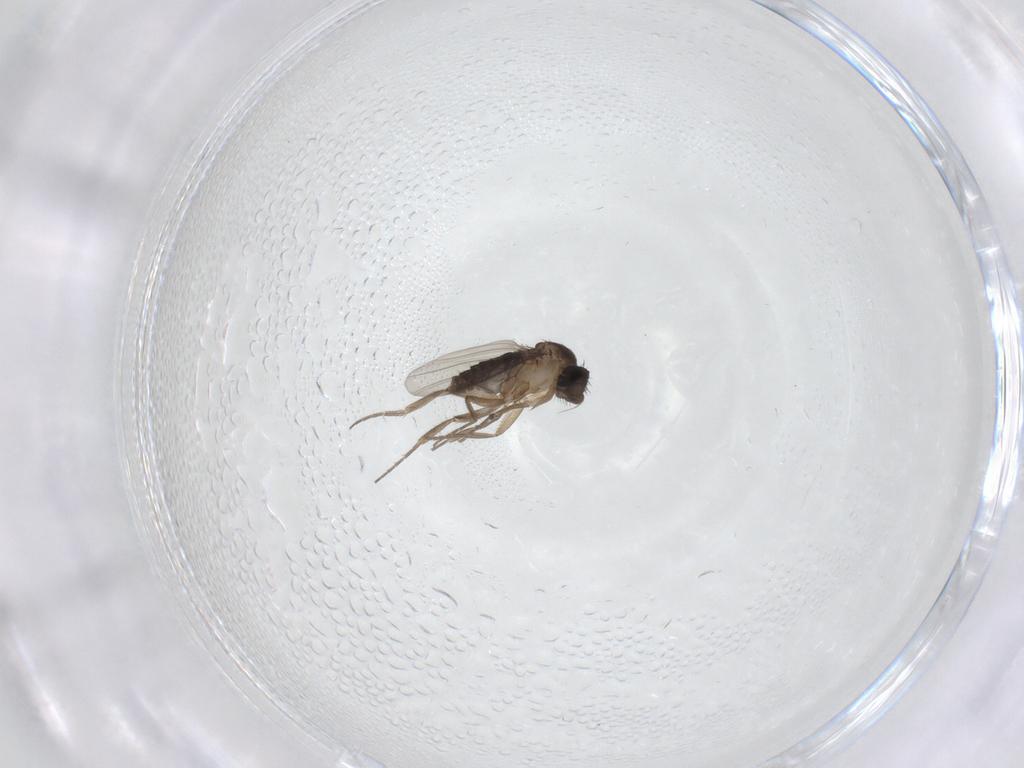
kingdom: Animalia
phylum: Arthropoda
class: Insecta
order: Diptera
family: Phoridae
